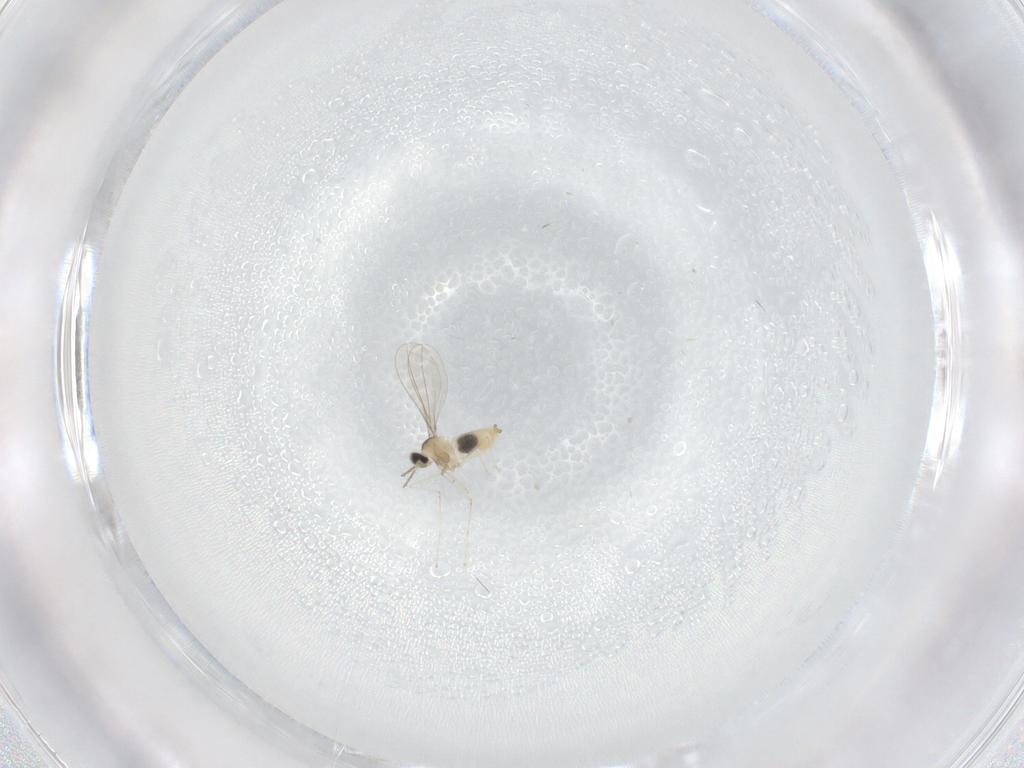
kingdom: Animalia
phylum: Arthropoda
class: Insecta
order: Diptera
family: Cecidomyiidae
